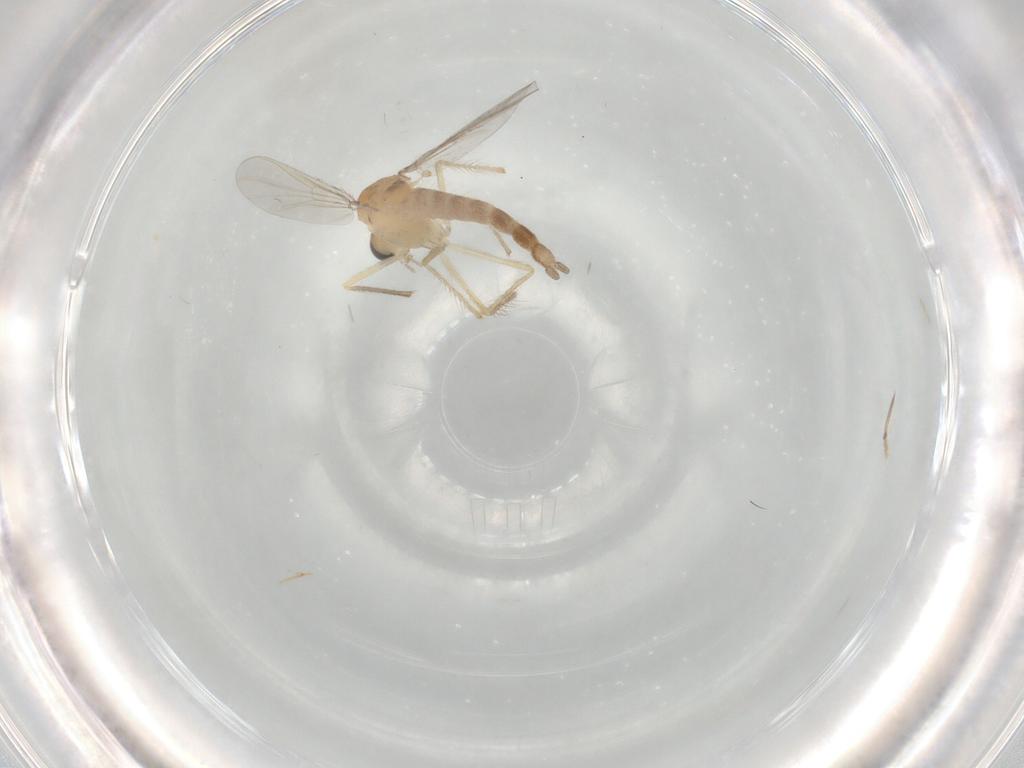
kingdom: Animalia
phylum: Arthropoda
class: Insecta
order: Diptera
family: Chironomidae
